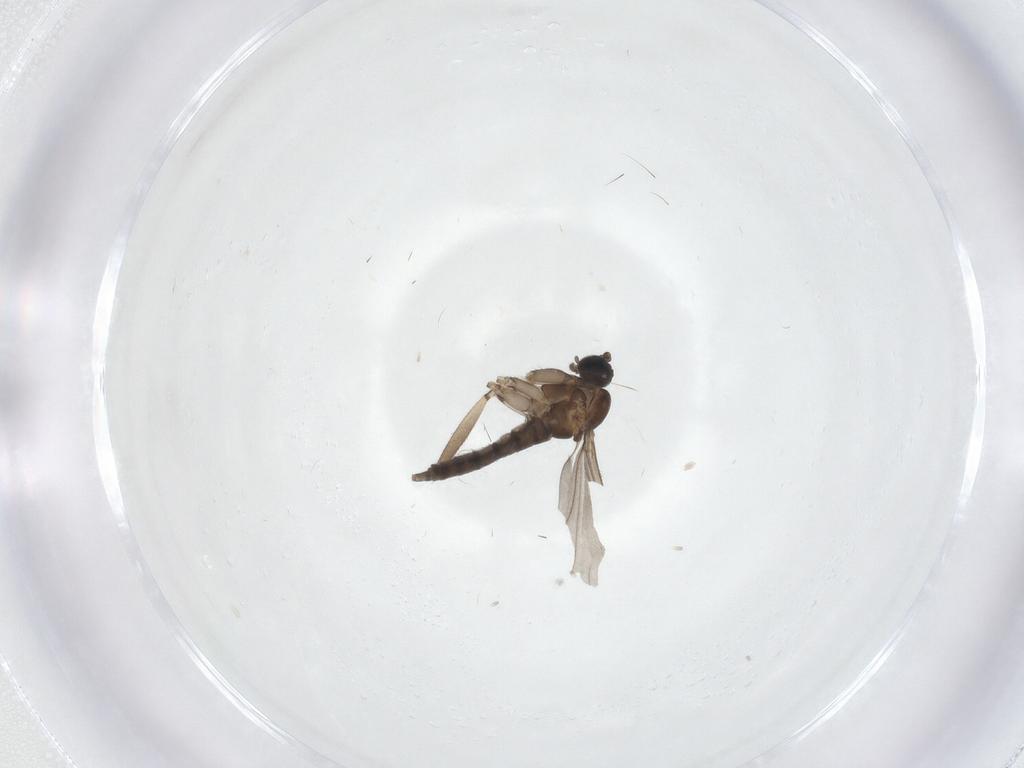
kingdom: Animalia
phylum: Arthropoda
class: Insecta
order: Diptera
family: Sciaridae
